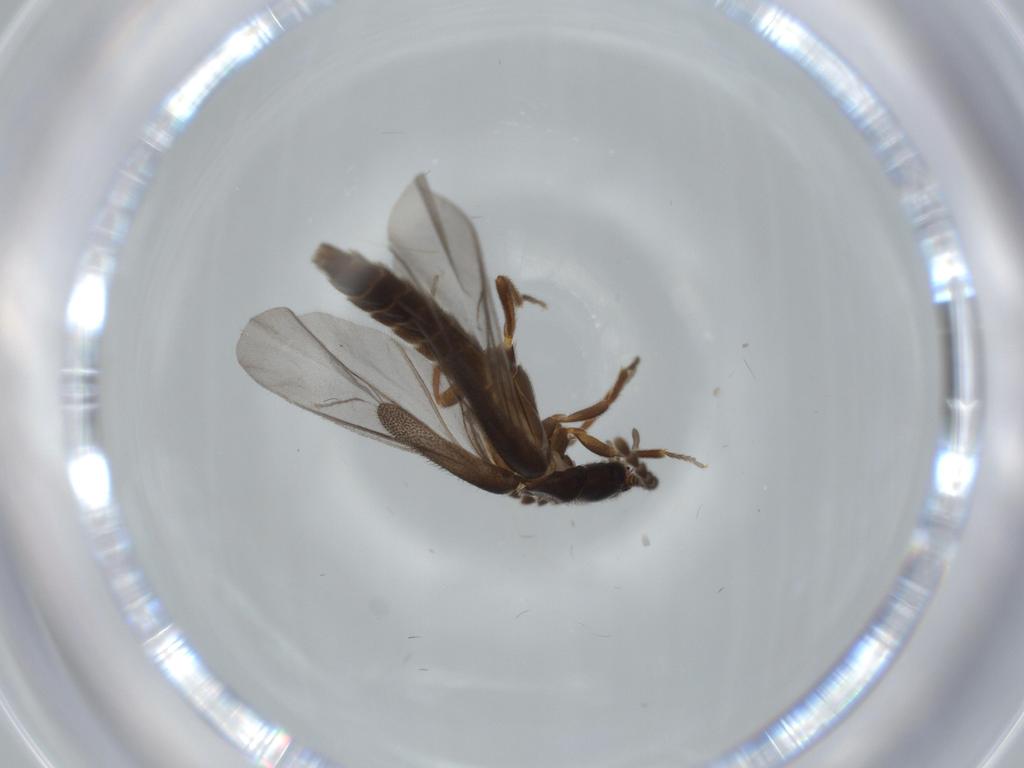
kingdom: Animalia
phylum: Arthropoda
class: Insecta
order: Coleoptera
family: Omethidae
